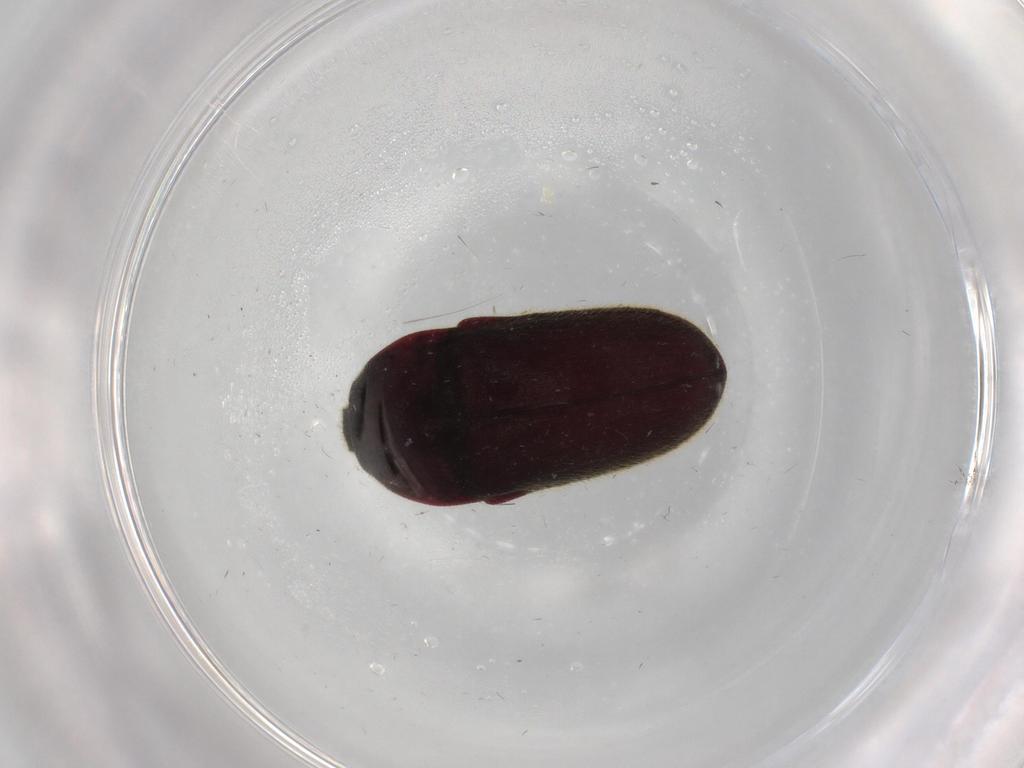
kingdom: Animalia
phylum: Arthropoda
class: Insecta
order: Coleoptera
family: Throscidae
